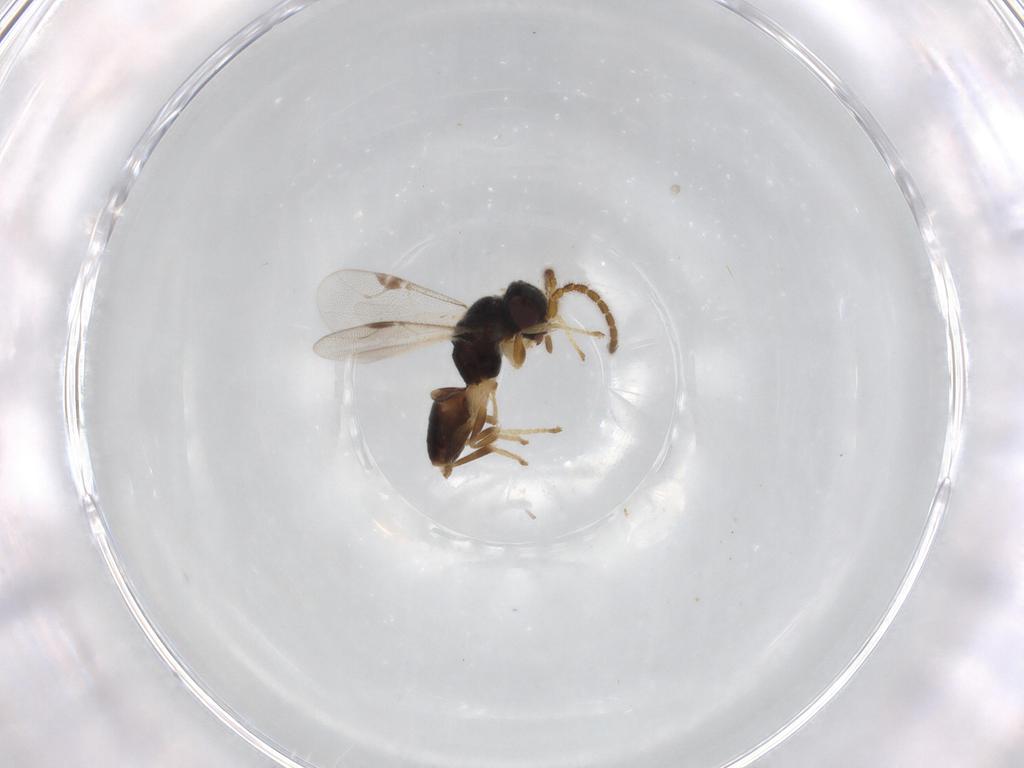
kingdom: Animalia
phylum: Arthropoda
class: Insecta
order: Hymenoptera
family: Dryinidae
